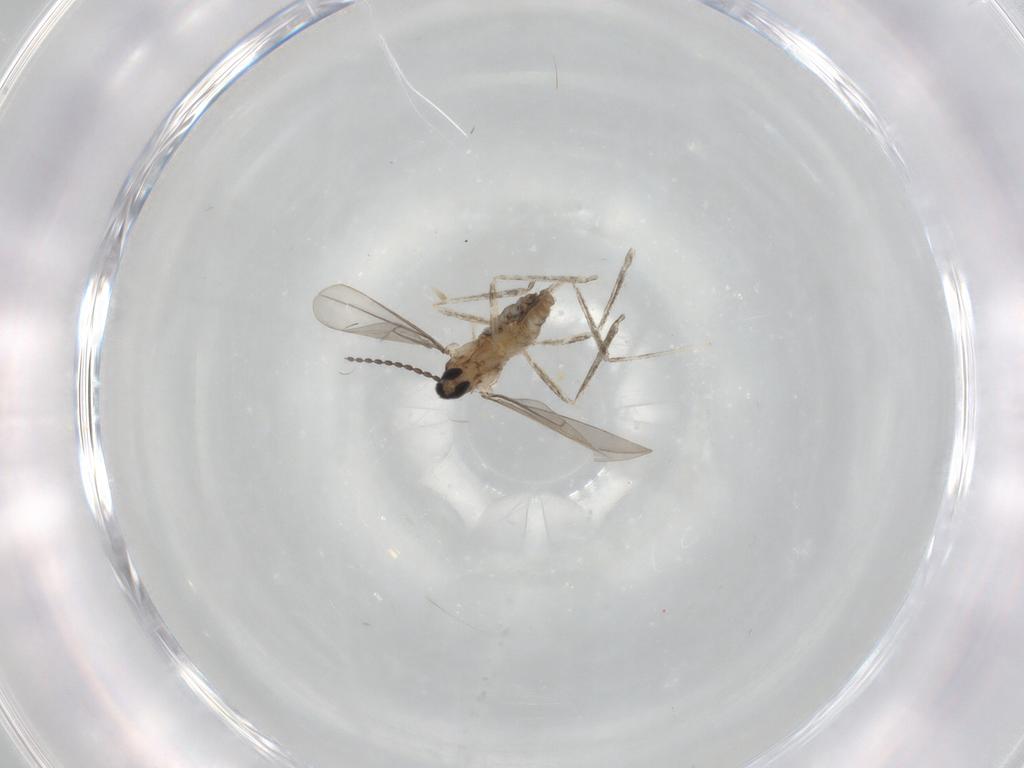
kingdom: Animalia
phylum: Arthropoda
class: Insecta
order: Diptera
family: Cecidomyiidae
